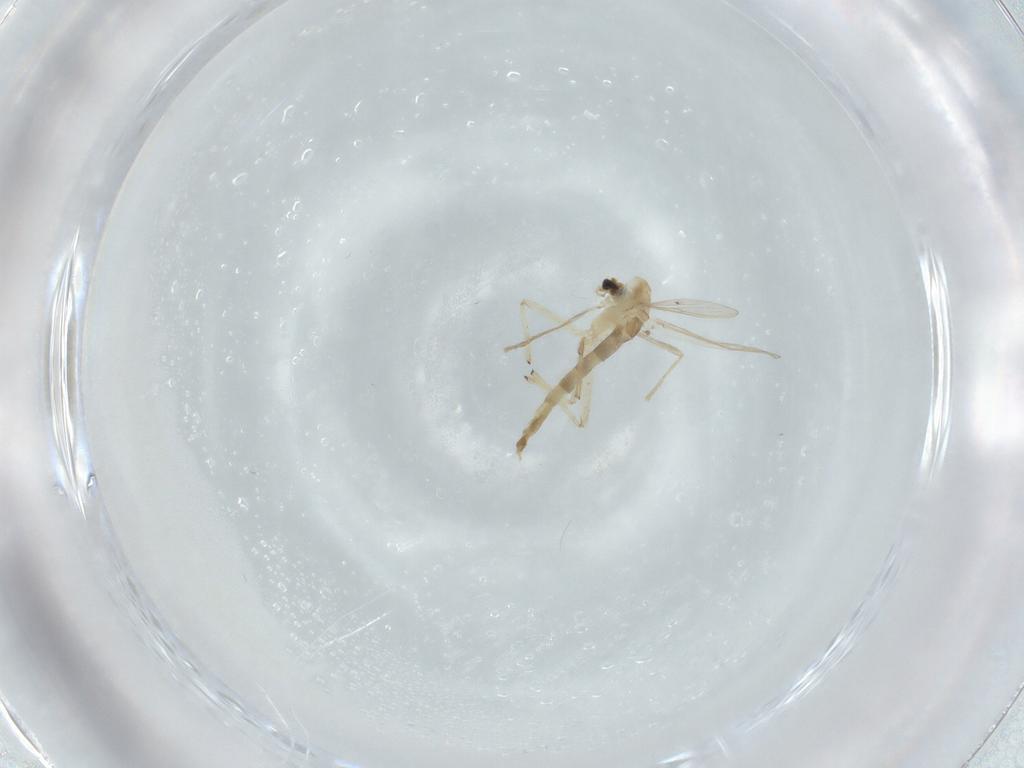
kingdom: Animalia
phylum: Arthropoda
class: Insecta
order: Diptera
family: Chironomidae
